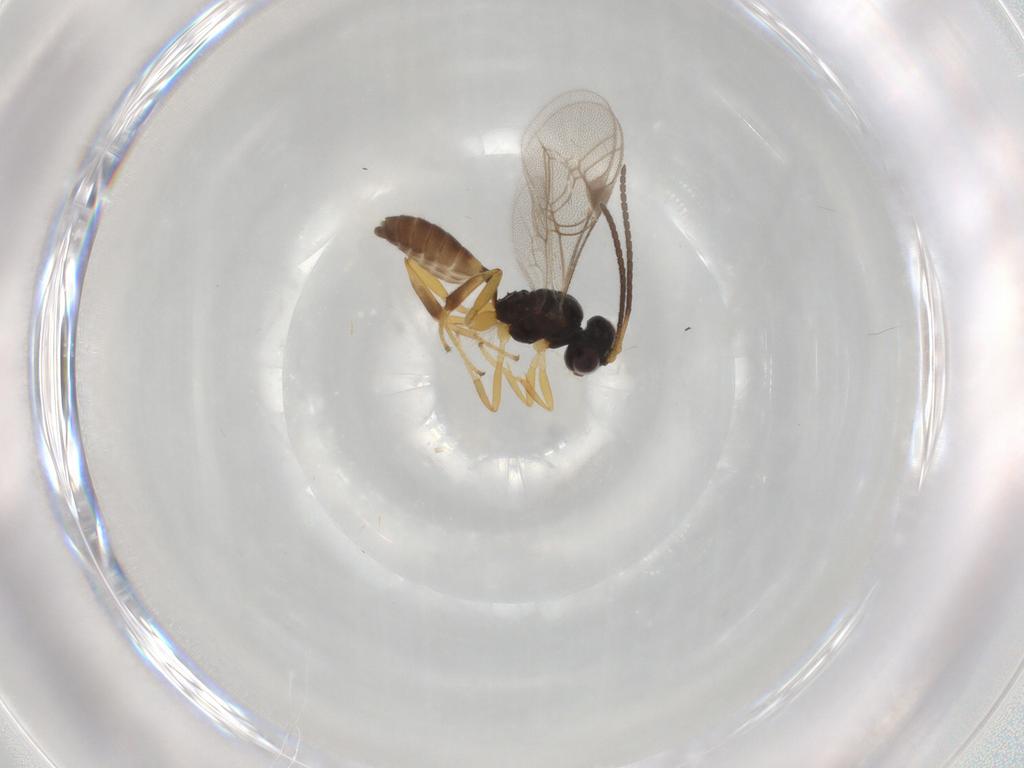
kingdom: Animalia
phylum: Arthropoda
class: Insecta
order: Hymenoptera
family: Ichneumonidae
